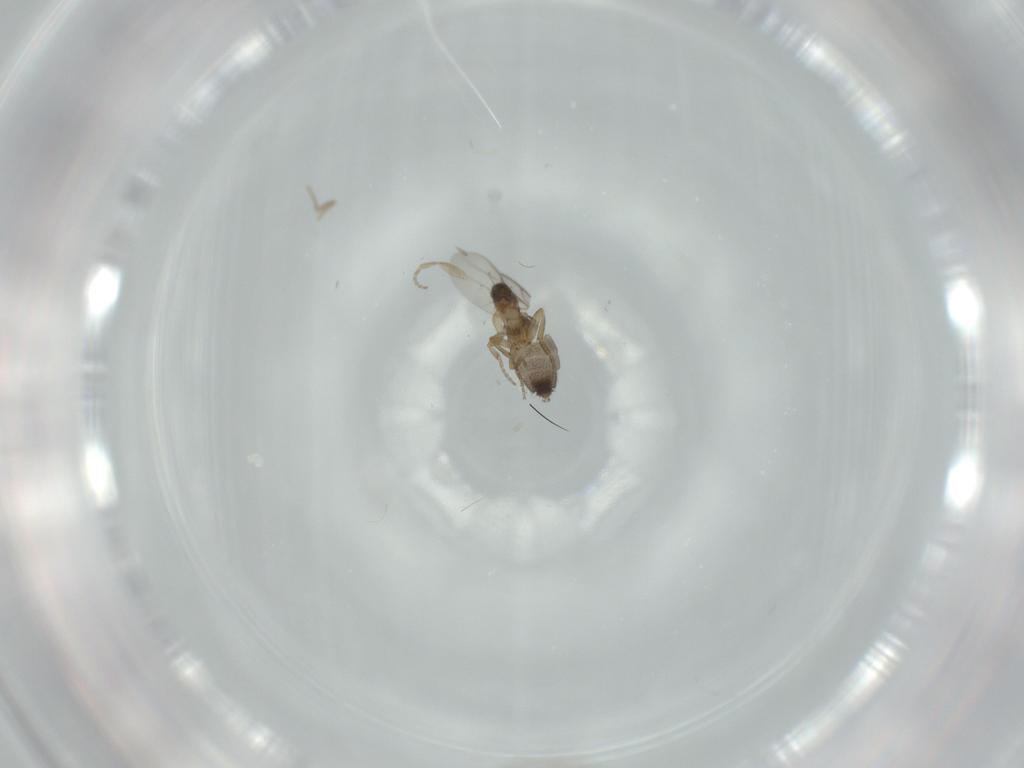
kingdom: Animalia
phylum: Arthropoda
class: Insecta
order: Diptera
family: Phoridae
